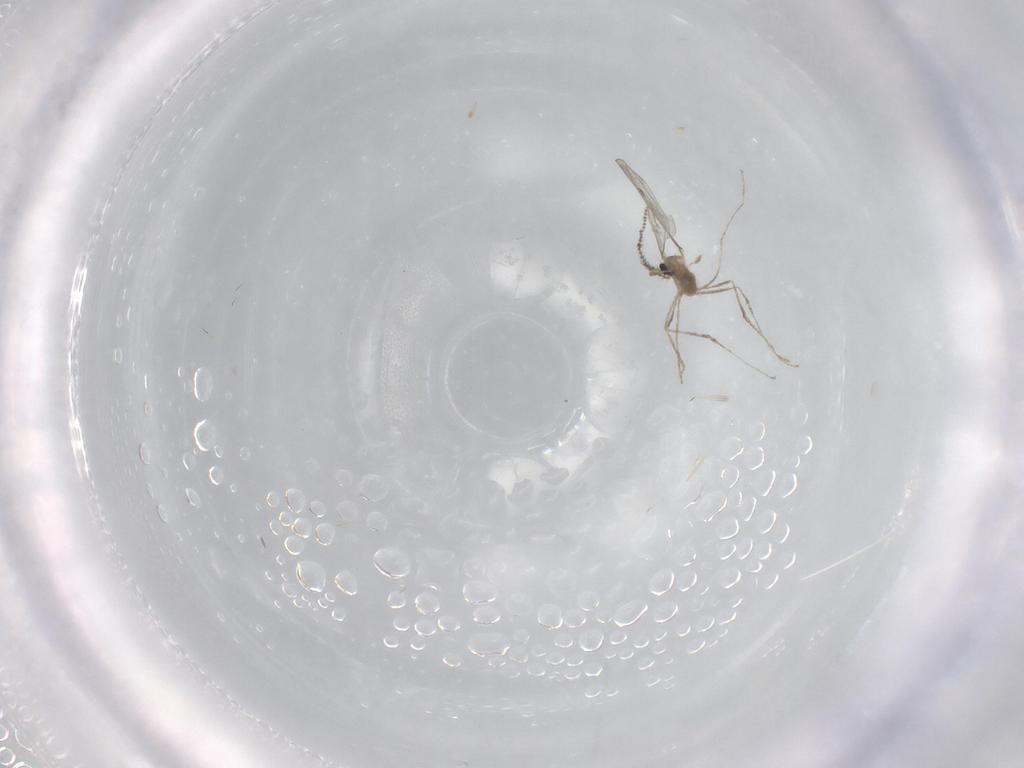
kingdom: Animalia
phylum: Arthropoda
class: Insecta
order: Diptera
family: Cecidomyiidae
